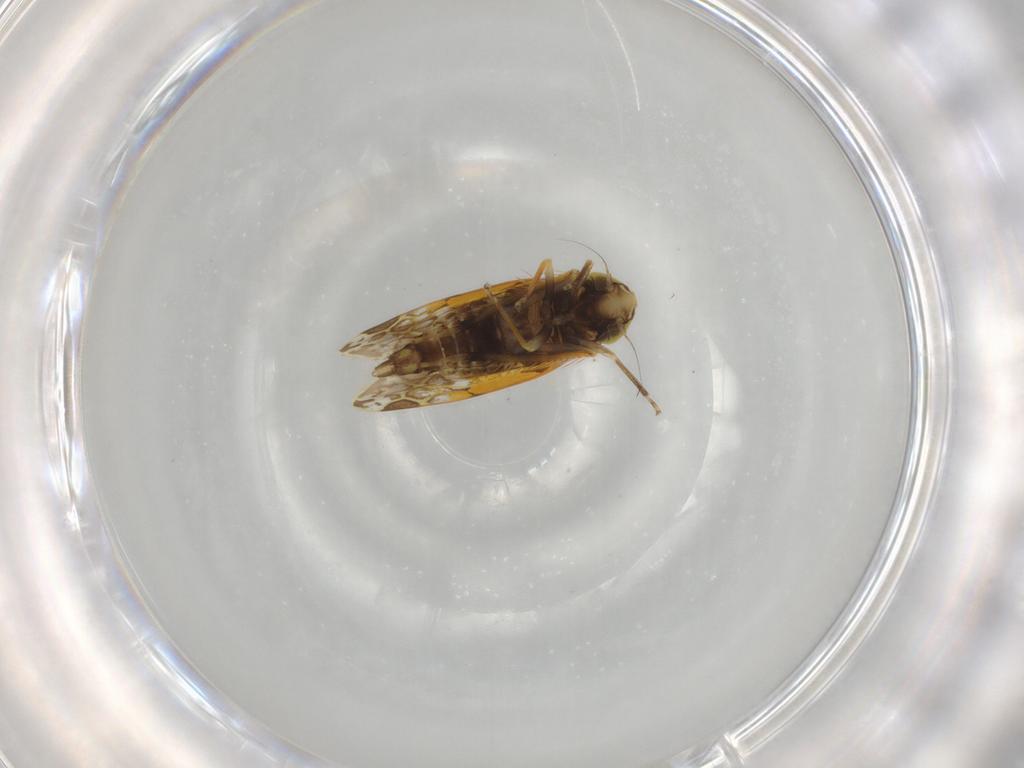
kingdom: Animalia
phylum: Arthropoda
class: Insecta
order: Hemiptera
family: Cicadellidae
